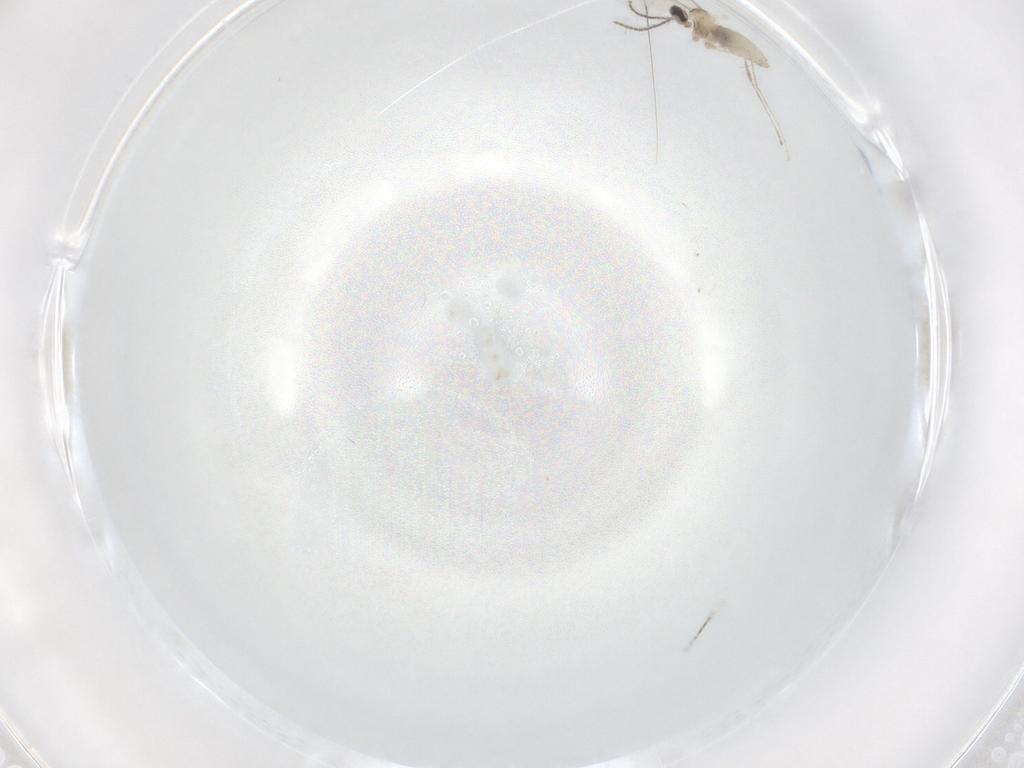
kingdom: Animalia
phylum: Arthropoda
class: Insecta
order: Diptera
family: Ceratopogonidae
